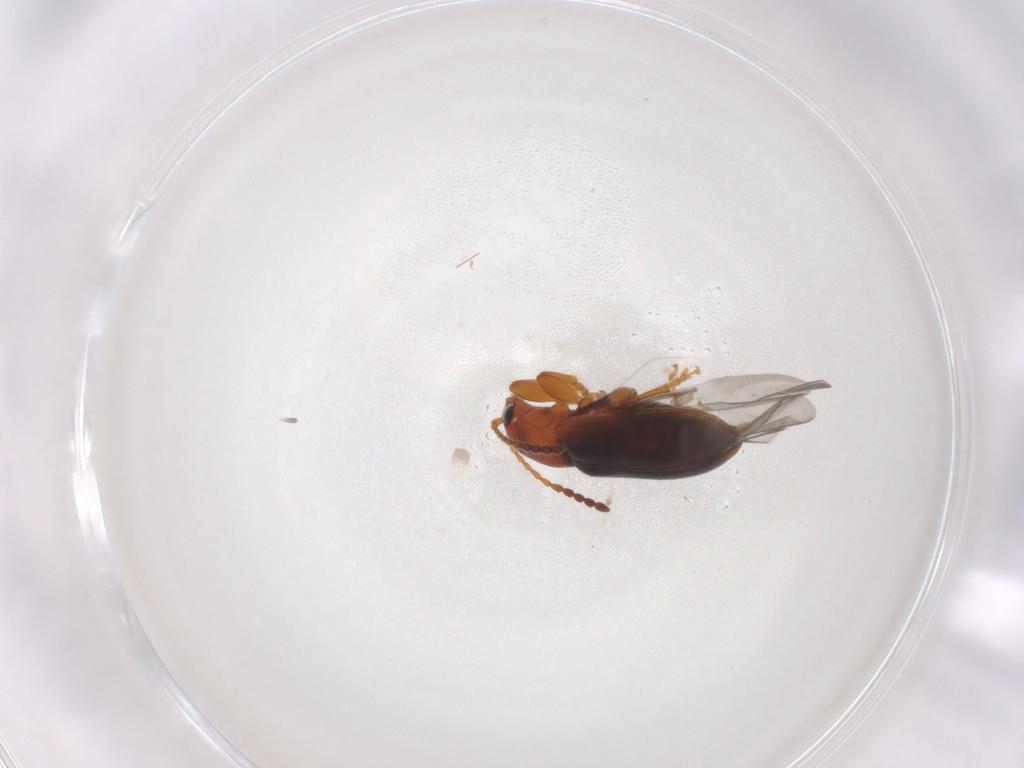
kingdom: Animalia
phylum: Arthropoda
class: Insecta
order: Coleoptera
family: Chrysomelidae
